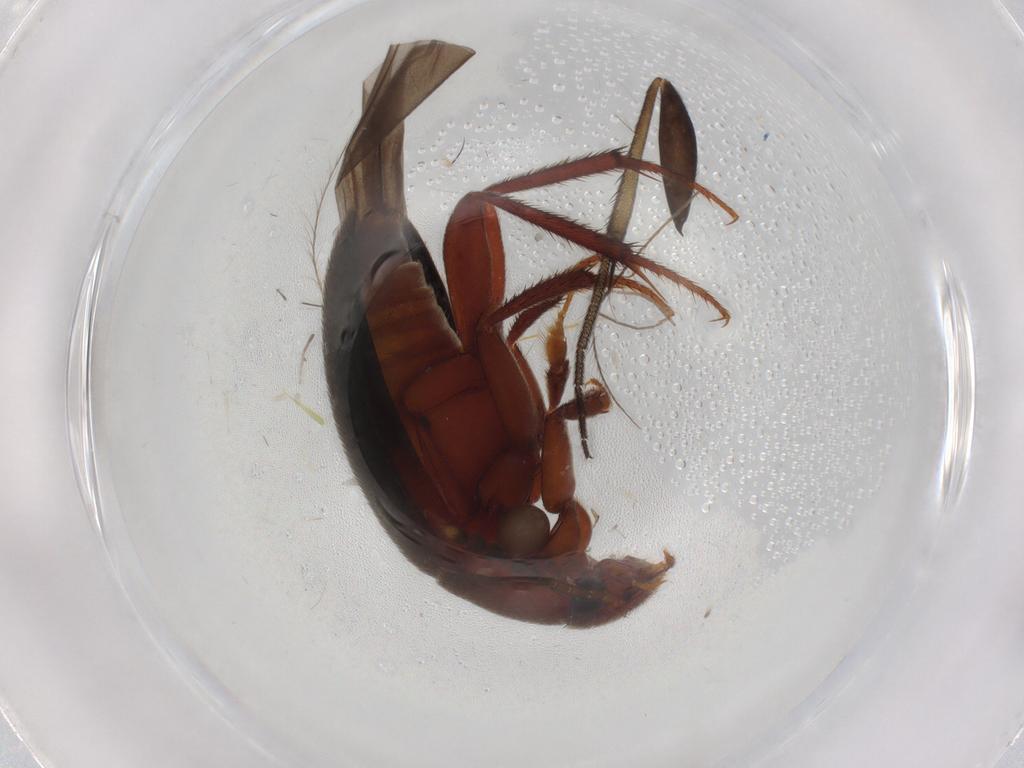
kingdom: Animalia
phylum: Arthropoda
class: Insecta
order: Coleoptera
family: Leiodidae
